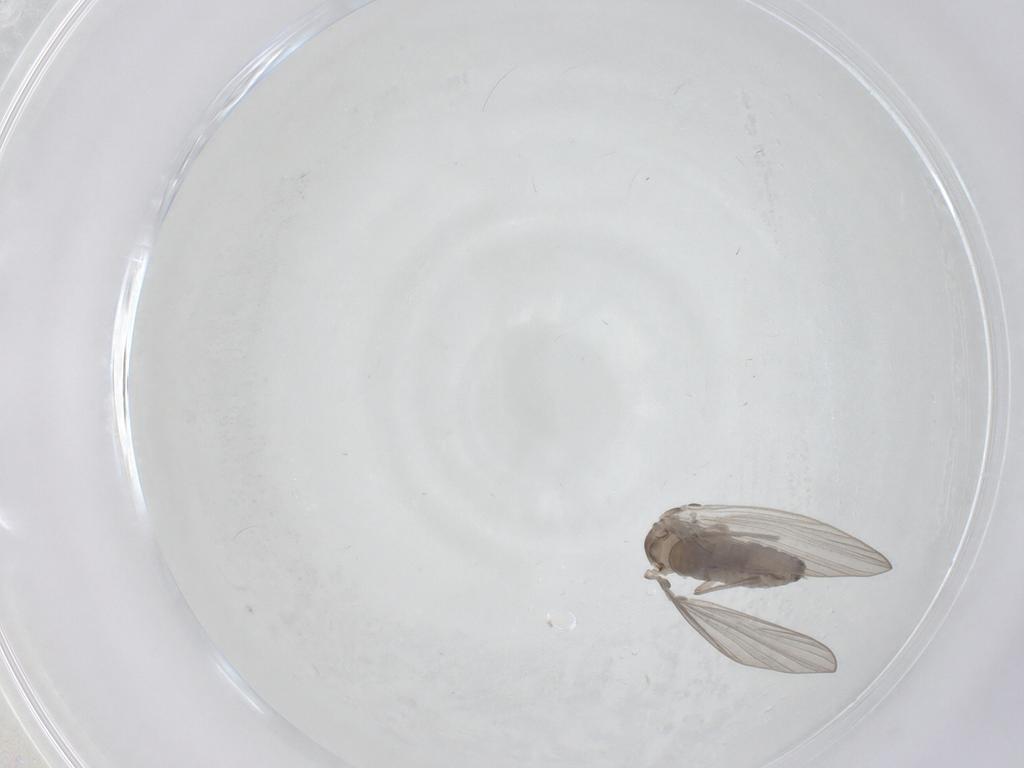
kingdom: Animalia
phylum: Arthropoda
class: Insecta
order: Diptera
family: Psychodidae
